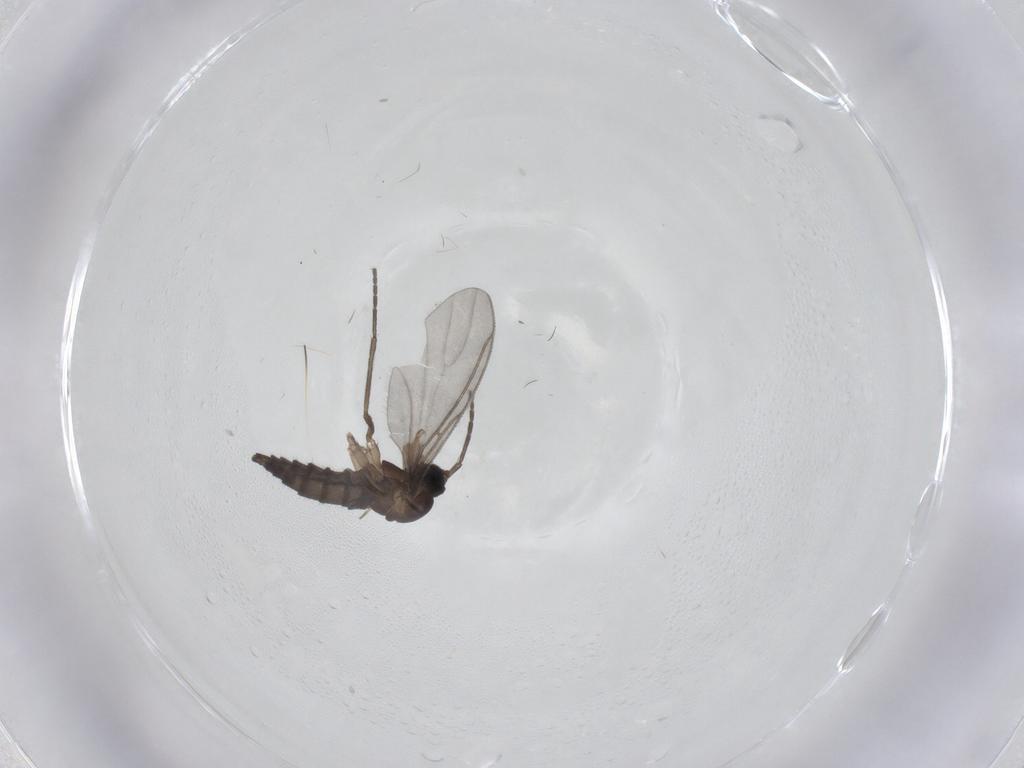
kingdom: Animalia
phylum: Arthropoda
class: Insecta
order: Diptera
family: Sciaridae
